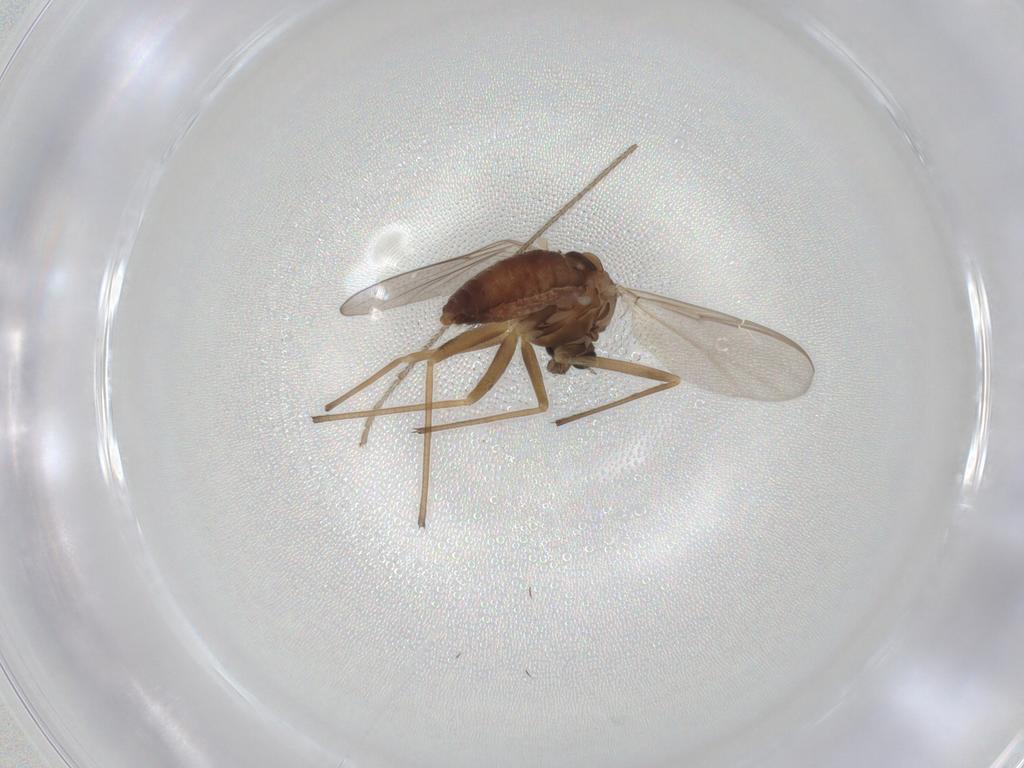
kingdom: Animalia
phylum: Arthropoda
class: Insecta
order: Diptera
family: Chironomidae
